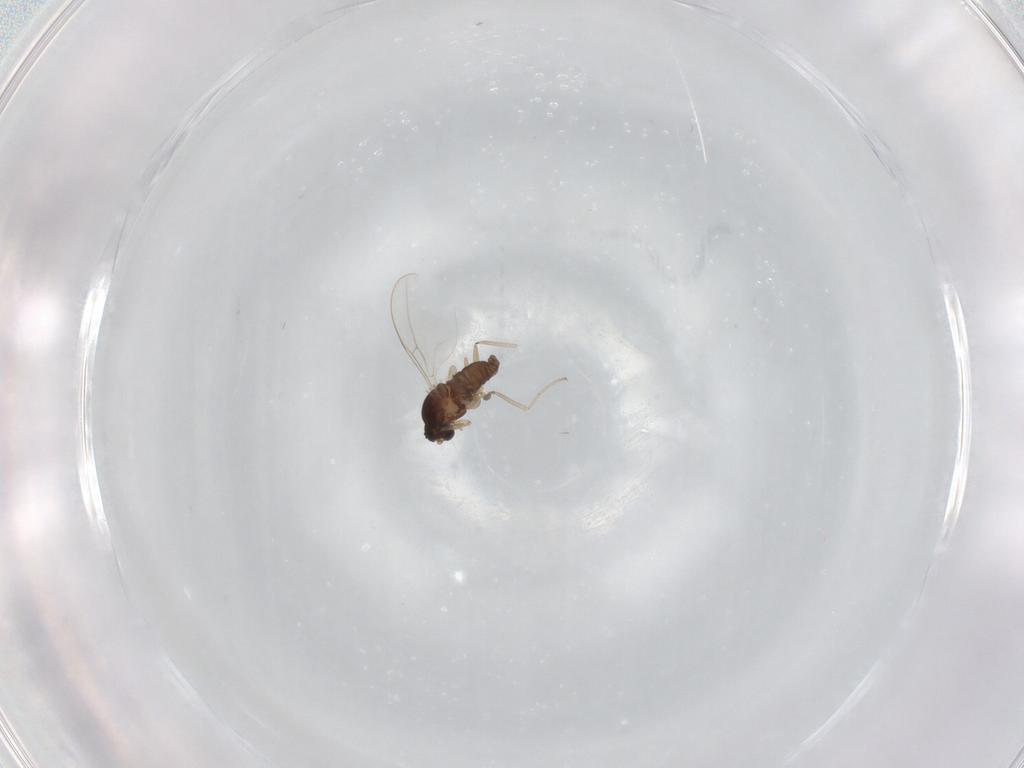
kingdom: Animalia
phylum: Arthropoda
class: Insecta
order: Diptera
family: Cecidomyiidae
